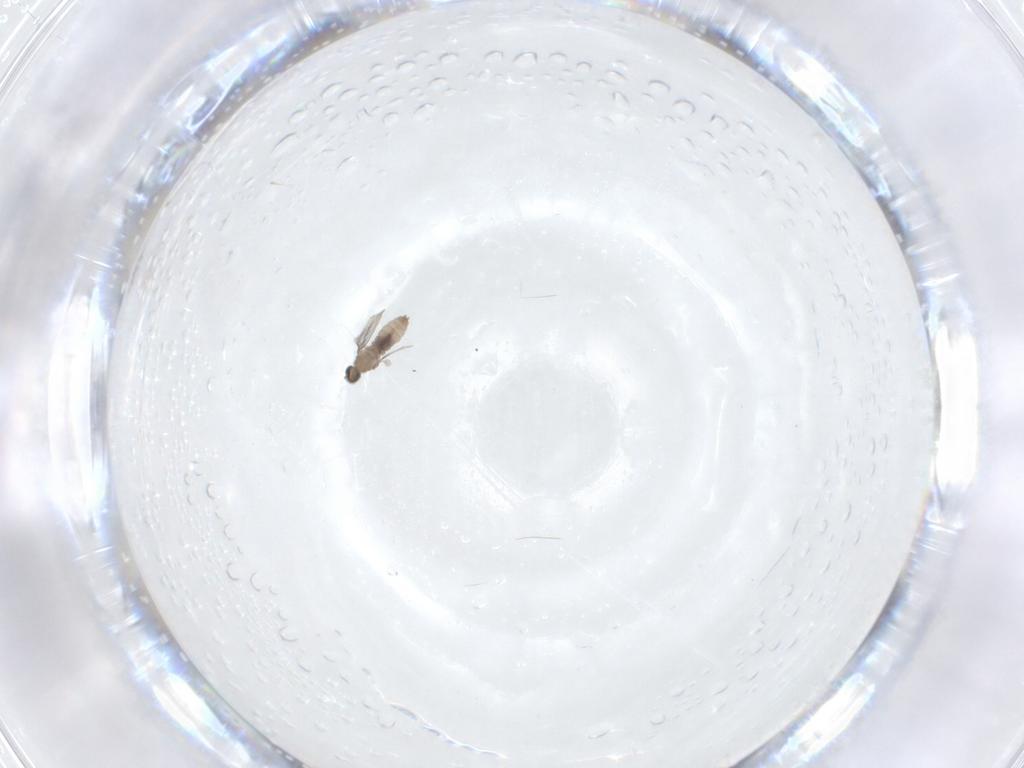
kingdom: Animalia
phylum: Arthropoda
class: Insecta
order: Diptera
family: Cecidomyiidae
